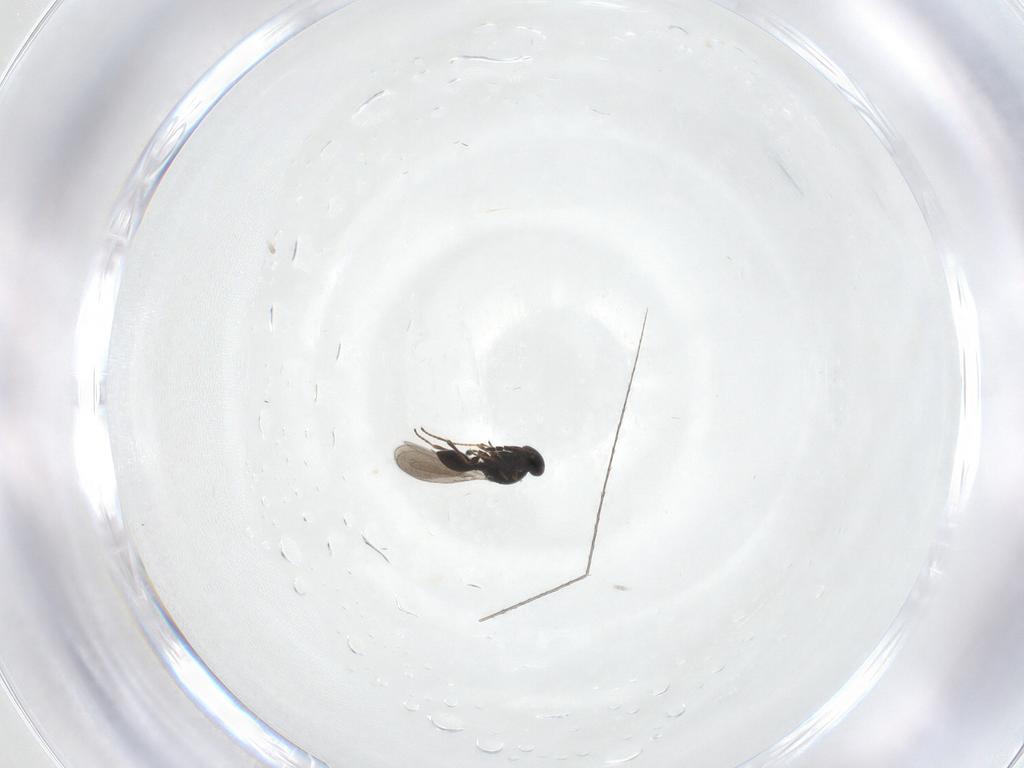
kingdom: Animalia
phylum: Arthropoda
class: Insecta
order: Hymenoptera
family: Platygastridae
